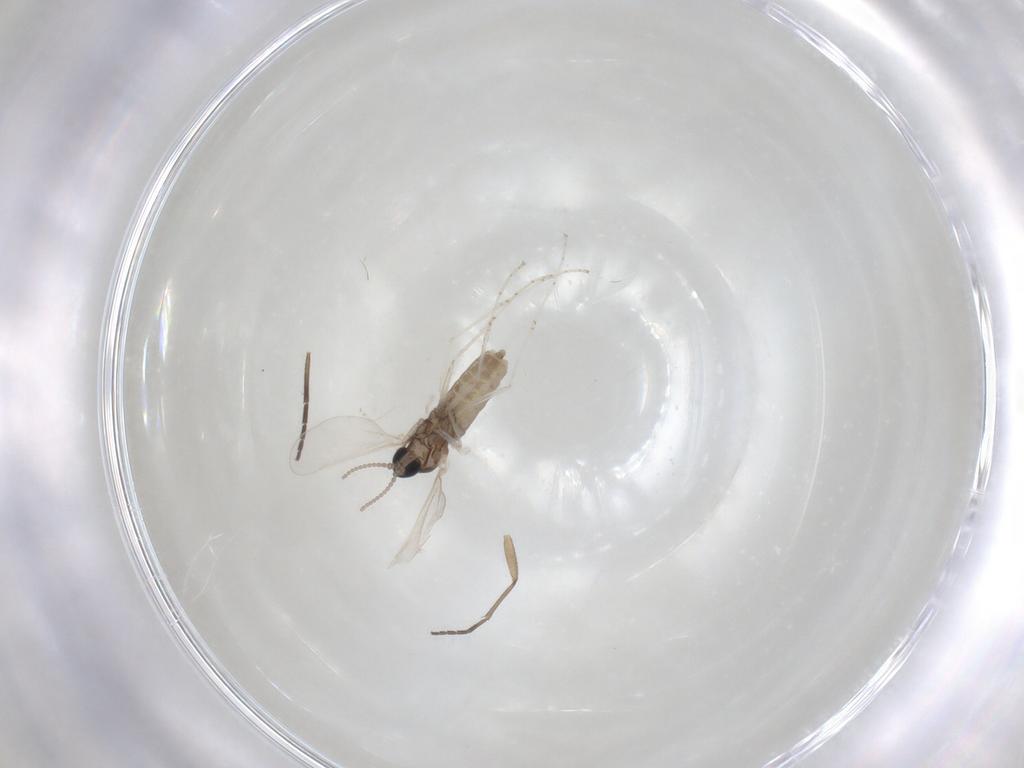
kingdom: Animalia
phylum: Arthropoda
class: Insecta
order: Diptera
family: Cecidomyiidae
